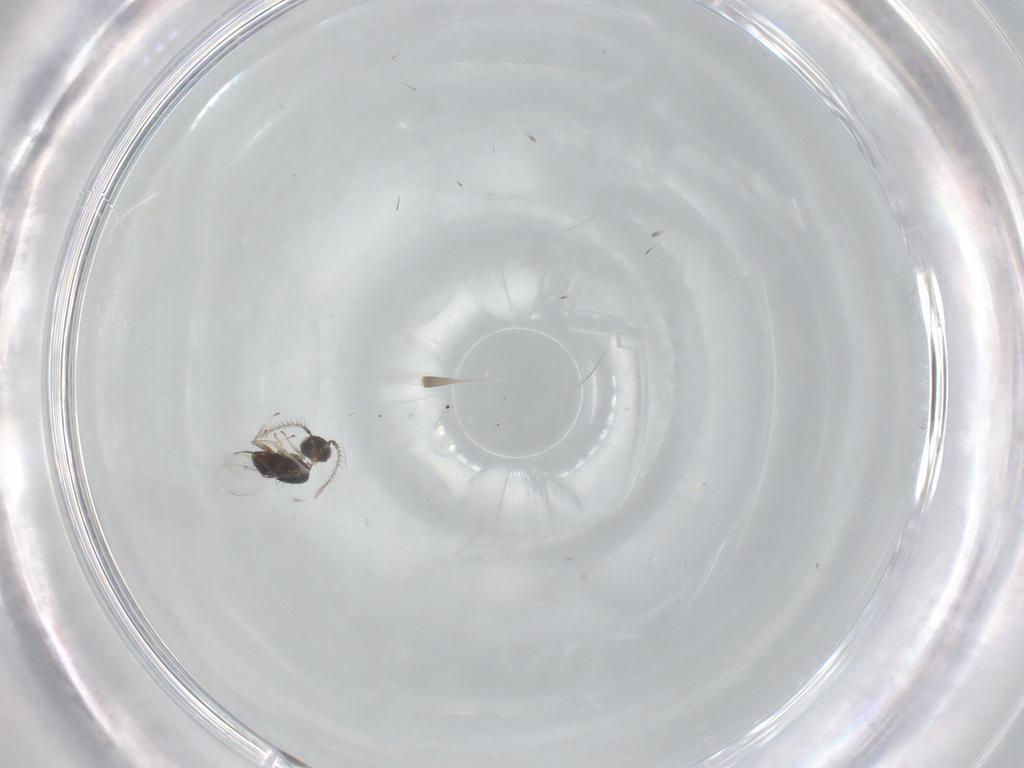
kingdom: Animalia
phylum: Arthropoda
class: Insecta
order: Hymenoptera
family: Encyrtidae
